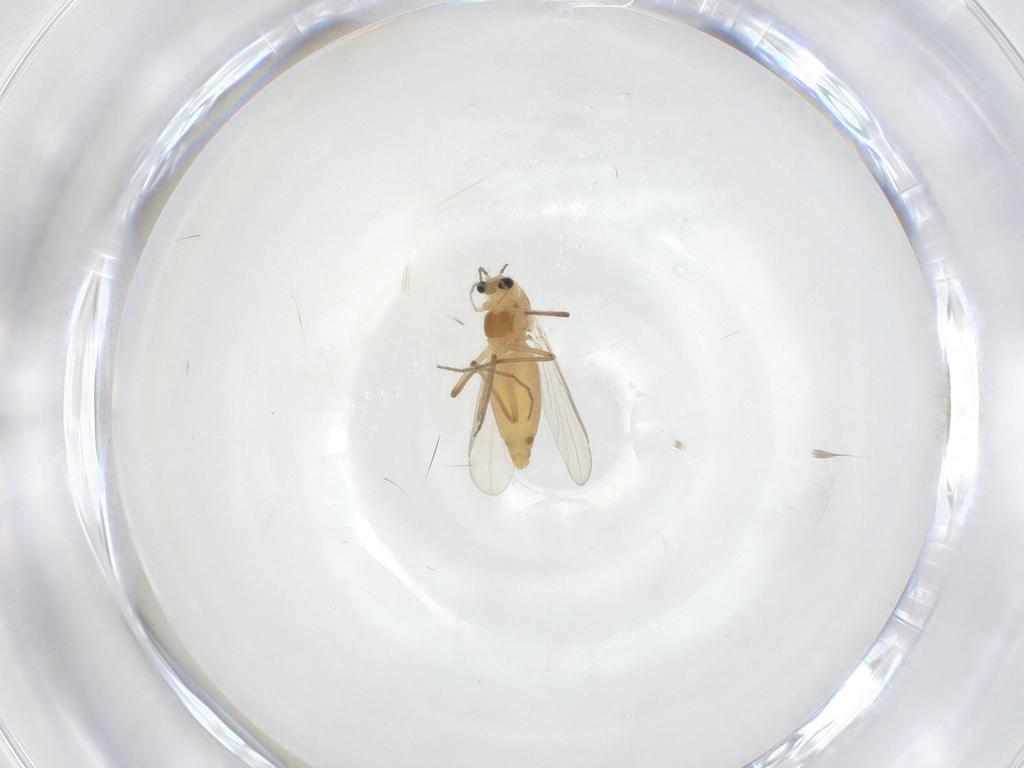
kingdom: Animalia
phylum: Arthropoda
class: Insecta
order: Diptera
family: Chironomidae
